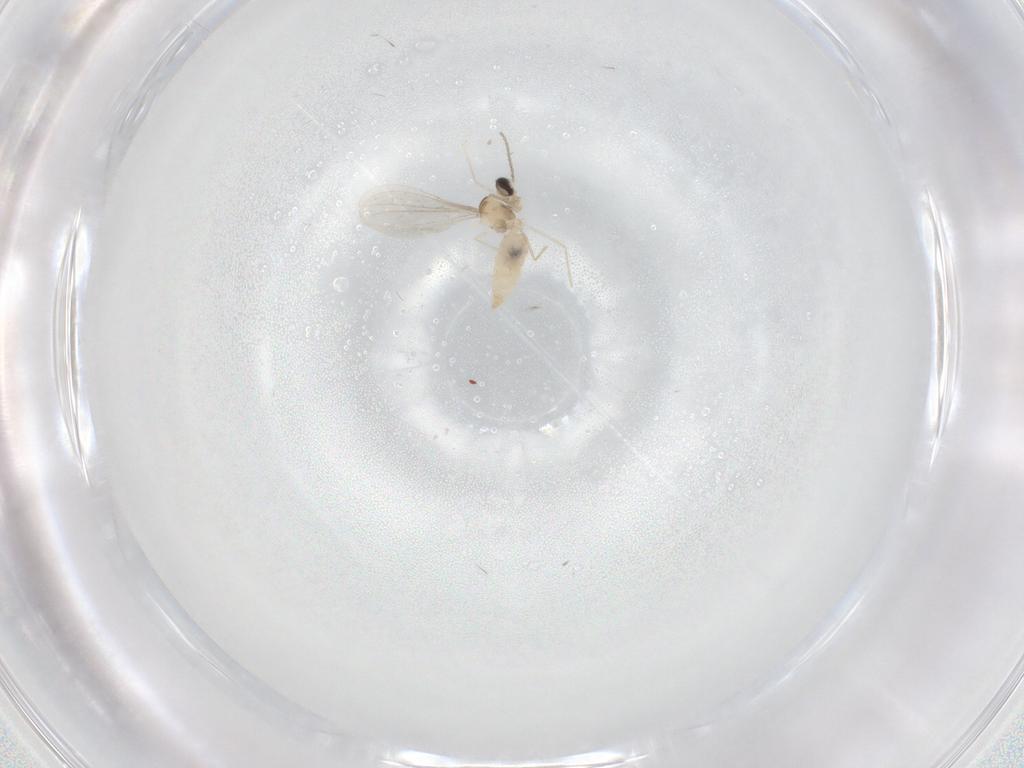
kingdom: Animalia
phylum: Arthropoda
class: Insecta
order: Diptera
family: Cecidomyiidae
